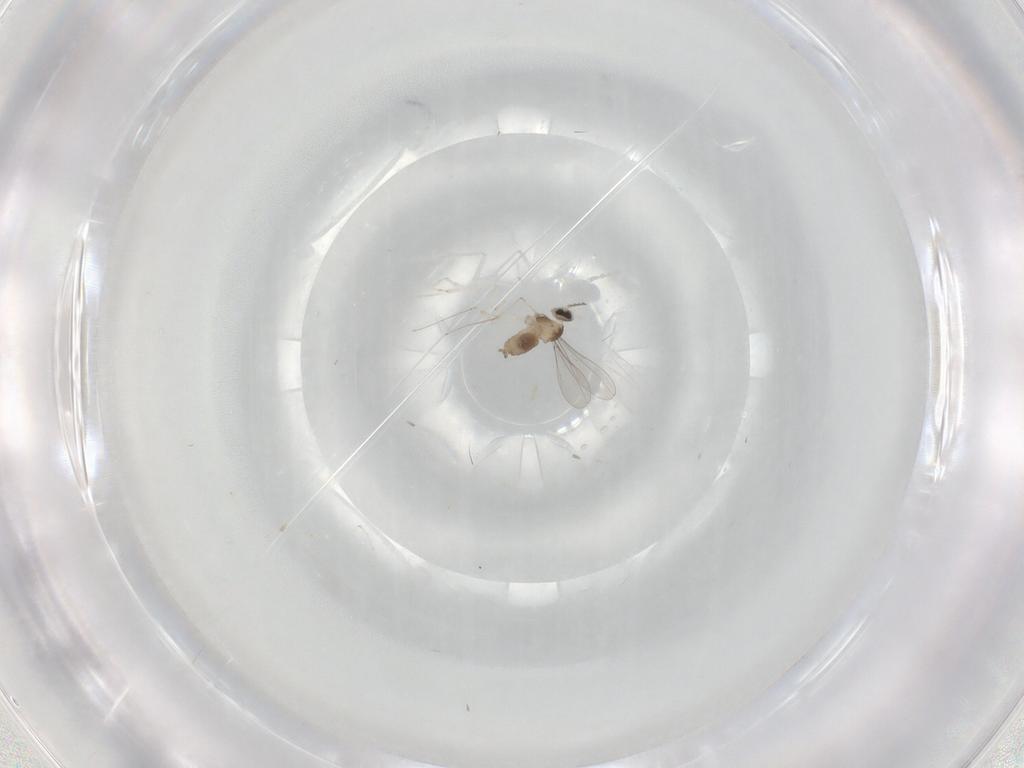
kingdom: Animalia
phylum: Arthropoda
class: Insecta
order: Diptera
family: Cecidomyiidae
